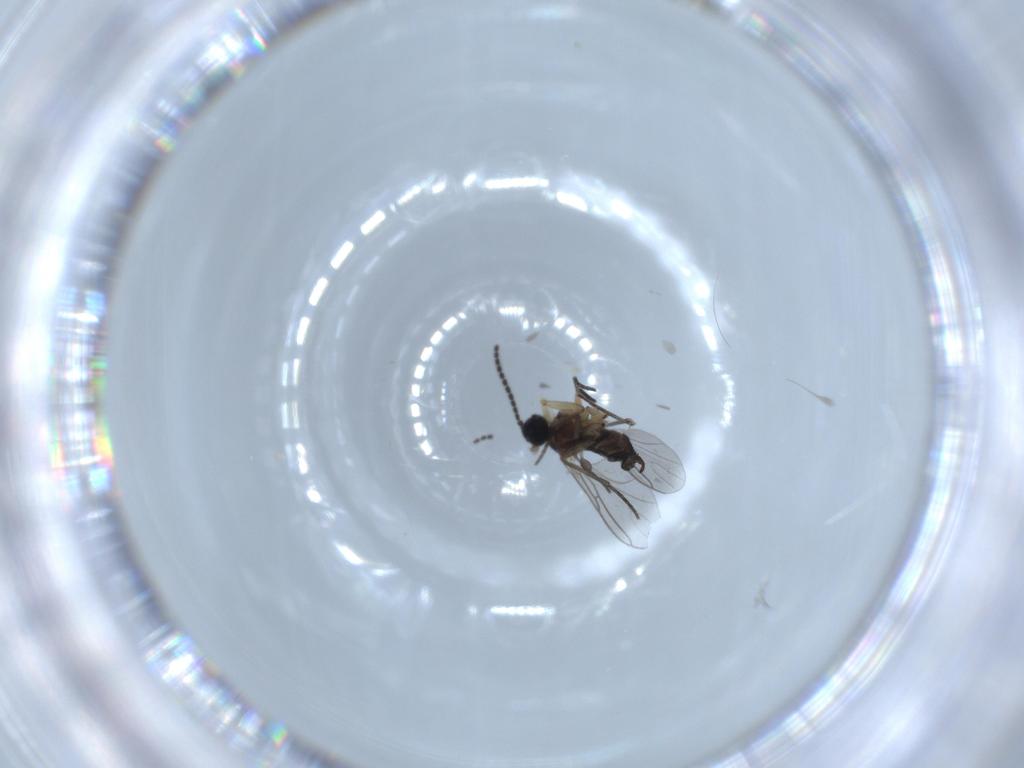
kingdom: Animalia
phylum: Arthropoda
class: Insecta
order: Diptera
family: Sciaridae
